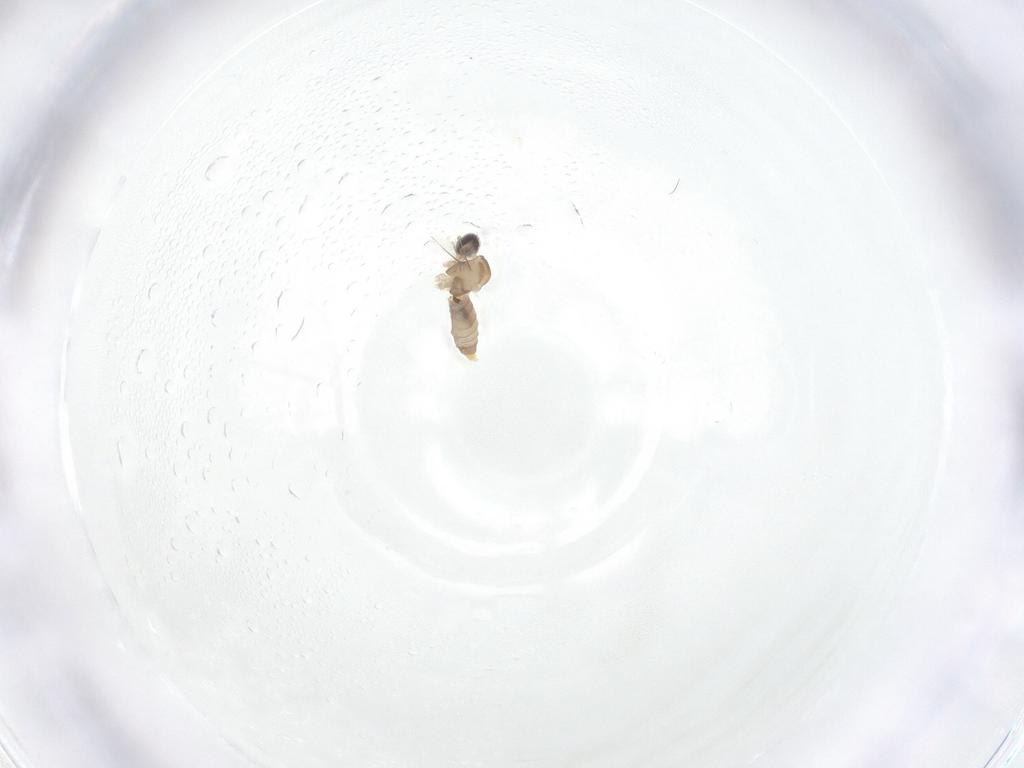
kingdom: Animalia
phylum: Arthropoda
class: Insecta
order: Diptera
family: Cecidomyiidae
